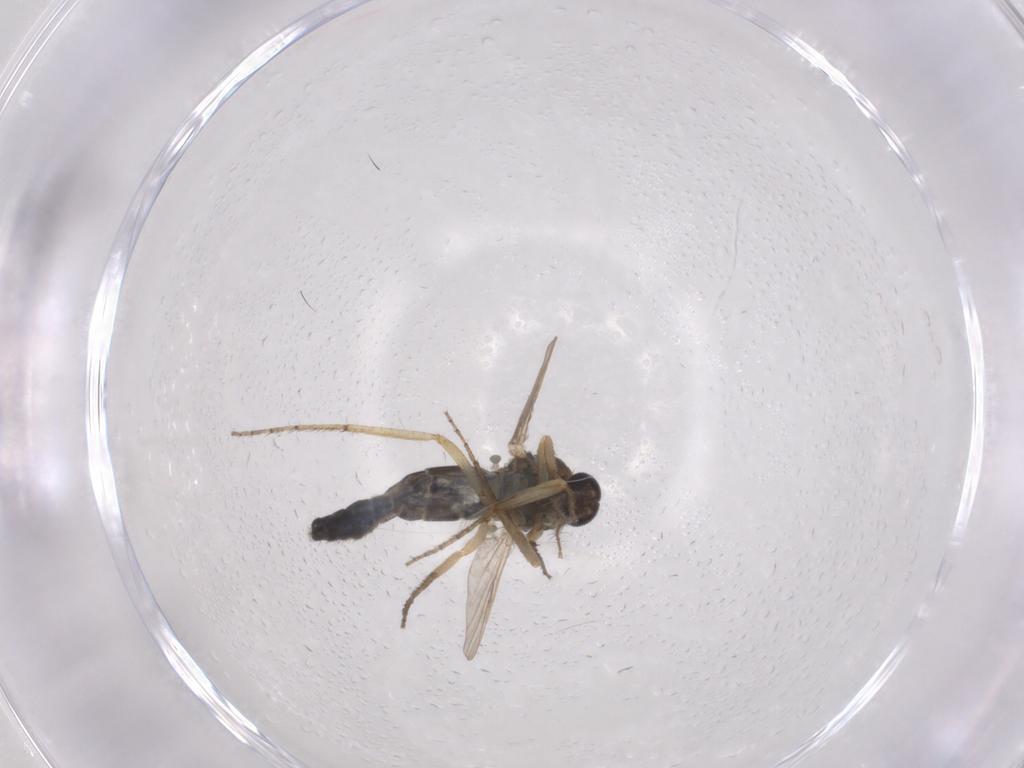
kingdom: Animalia
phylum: Arthropoda
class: Insecta
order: Diptera
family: Ceratopogonidae
